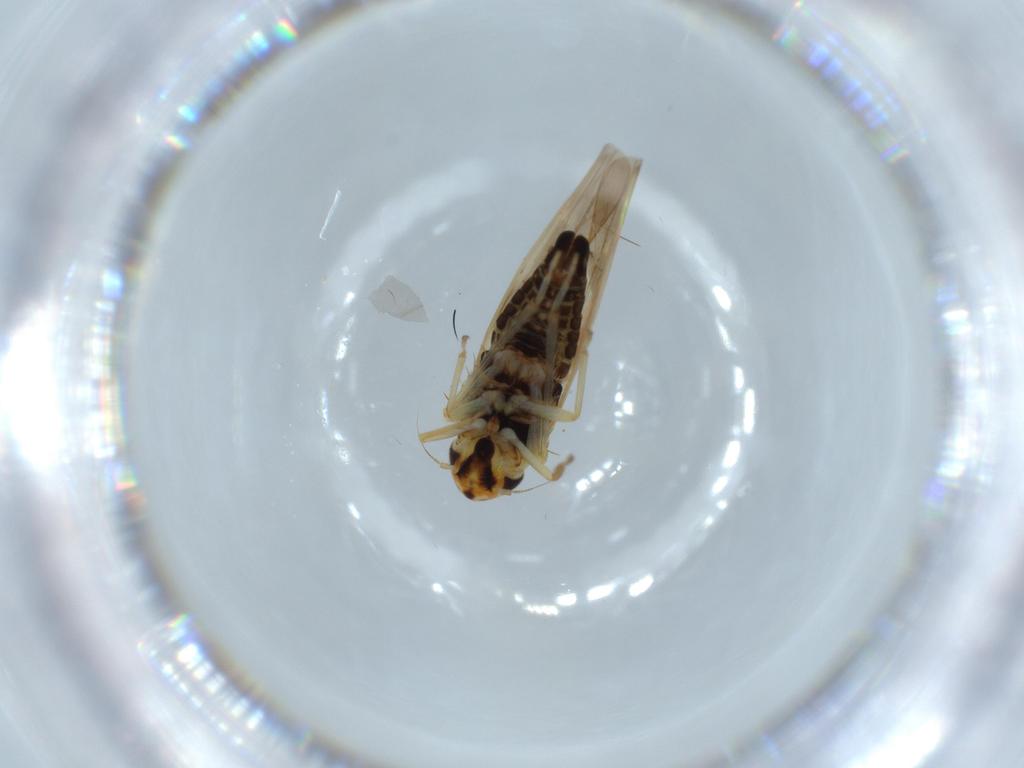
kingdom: Animalia
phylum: Arthropoda
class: Insecta
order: Hemiptera
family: Cicadellidae
